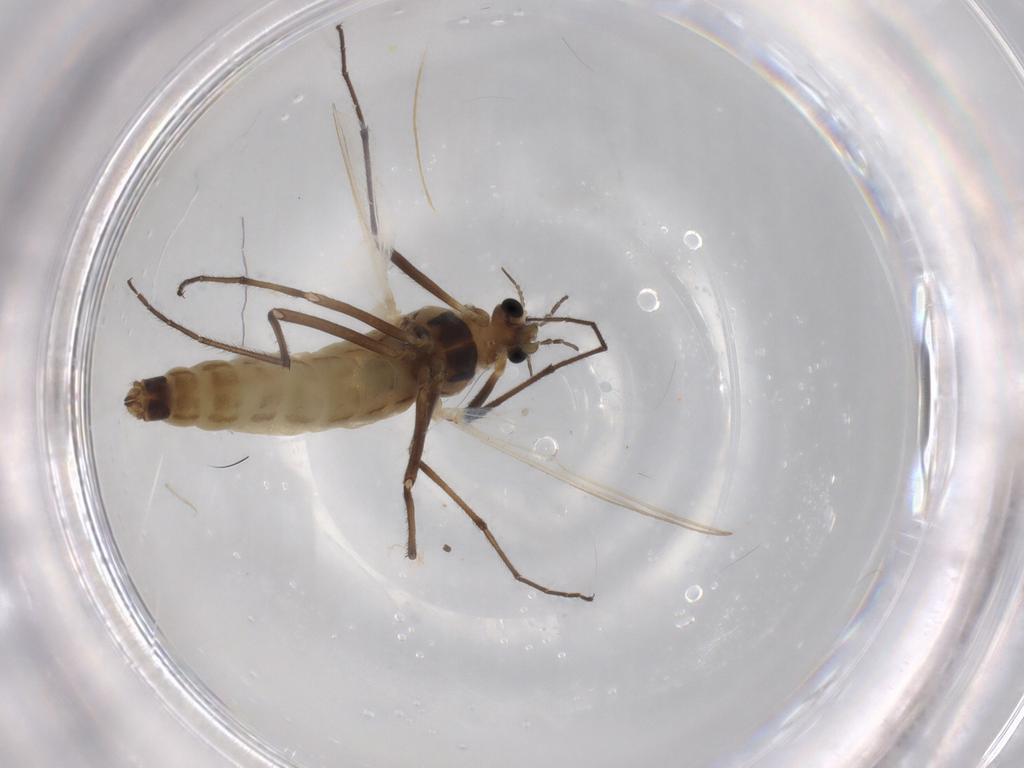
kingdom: Animalia
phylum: Arthropoda
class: Insecta
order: Diptera
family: Chironomidae
